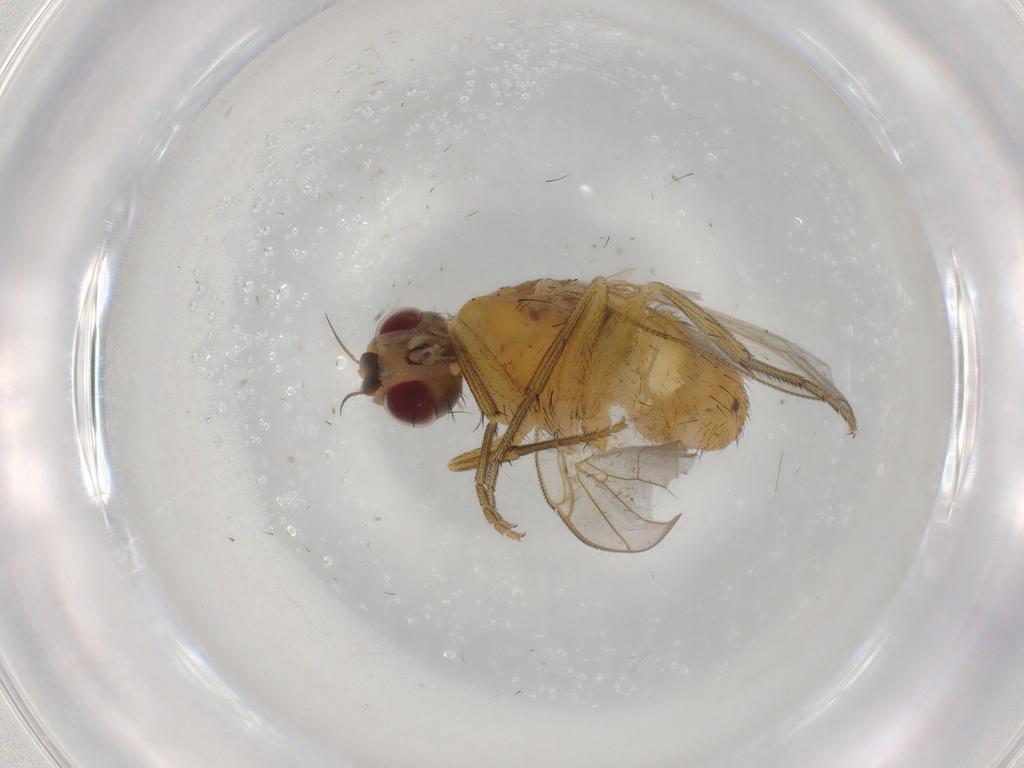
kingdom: Animalia
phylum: Arthropoda
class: Insecta
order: Diptera
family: Muscidae
